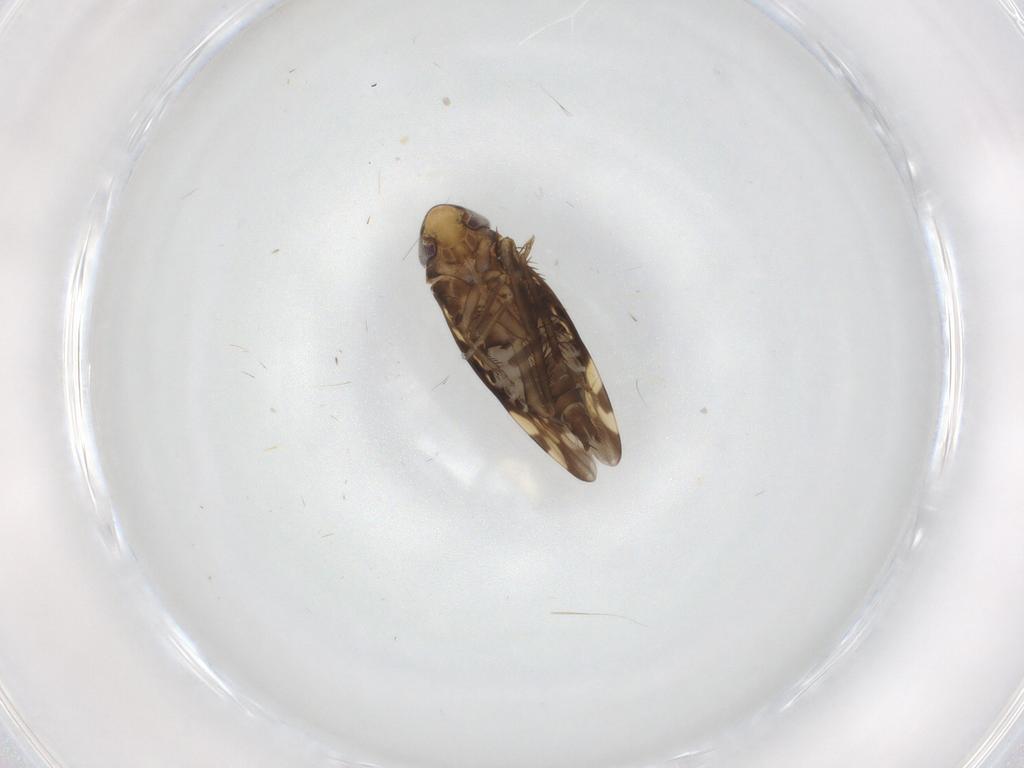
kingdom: Animalia
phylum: Arthropoda
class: Insecta
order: Hemiptera
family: Cicadellidae
